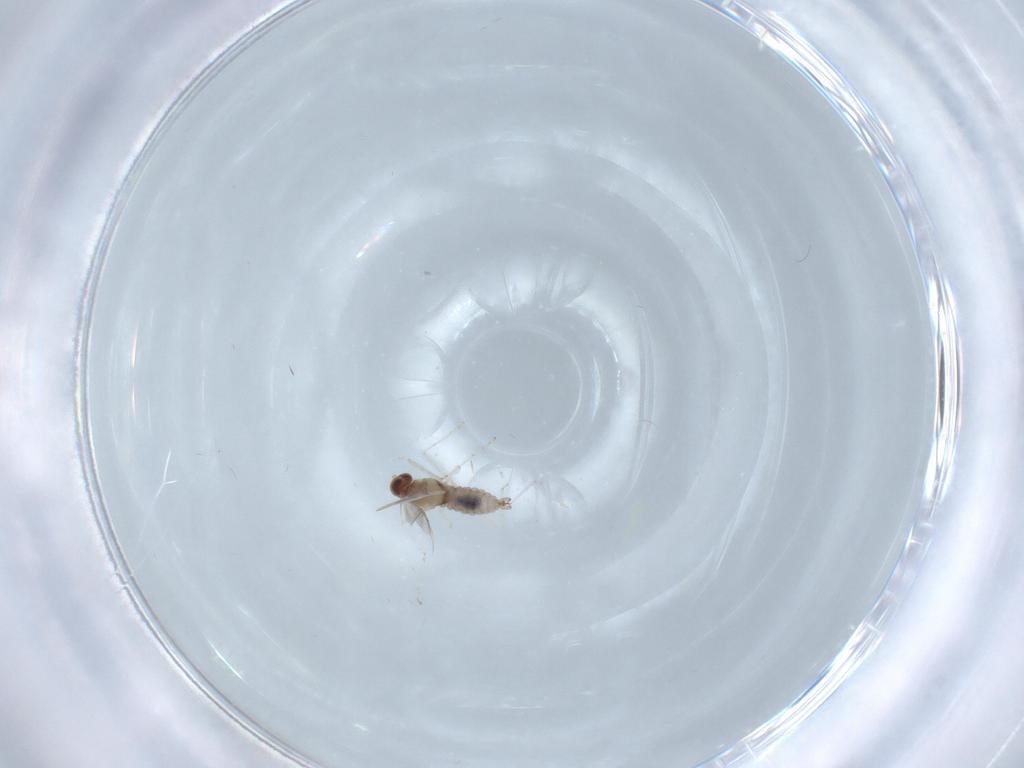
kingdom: Animalia
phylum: Arthropoda
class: Insecta
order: Diptera
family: Cecidomyiidae
